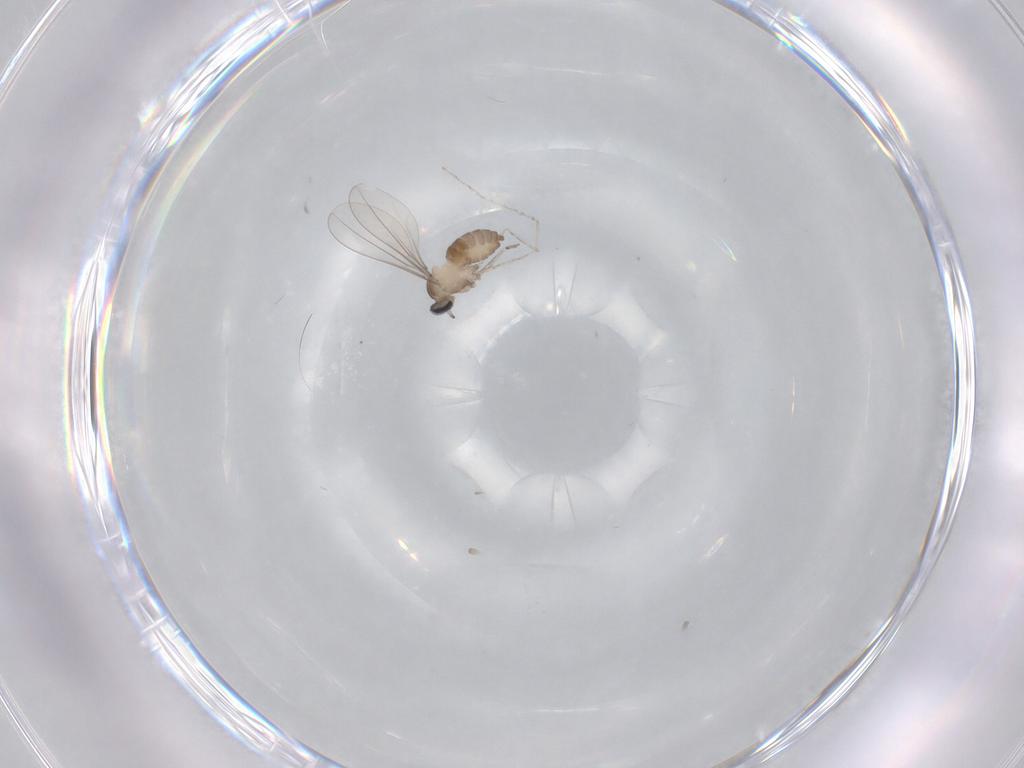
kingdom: Animalia
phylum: Arthropoda
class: Insecta
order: Diptera
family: Cecidomyiidae
